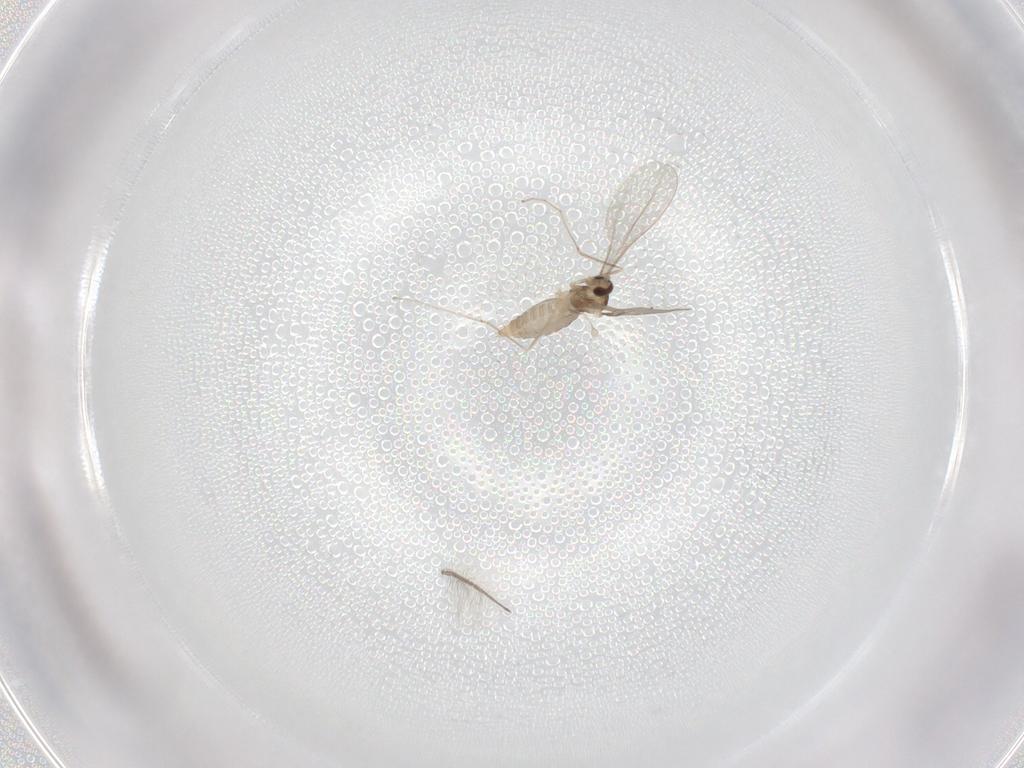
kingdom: Animalia
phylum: Arthropoda
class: Insecta
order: Diptera
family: Cecidomyiidae
